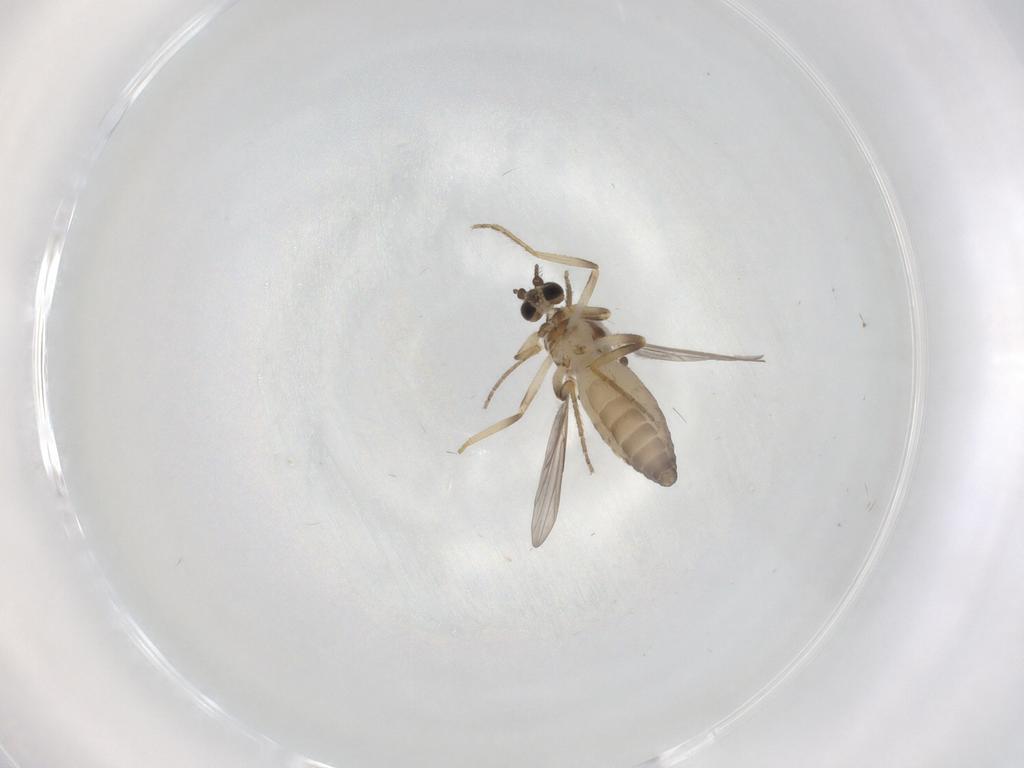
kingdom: Animalia
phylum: Arthropoda
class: Insecta
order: Diptera
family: Ceratopogonidae
